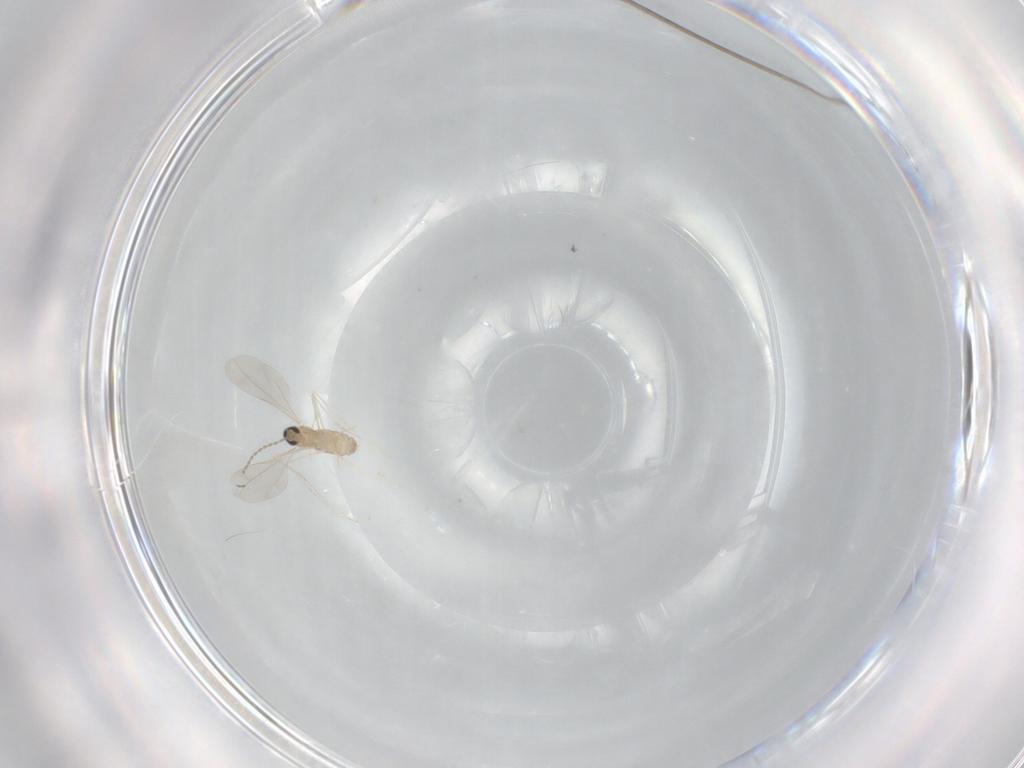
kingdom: Animalia
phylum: Arthropoda
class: Insecta
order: Diptera
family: Cecidomyiidae
